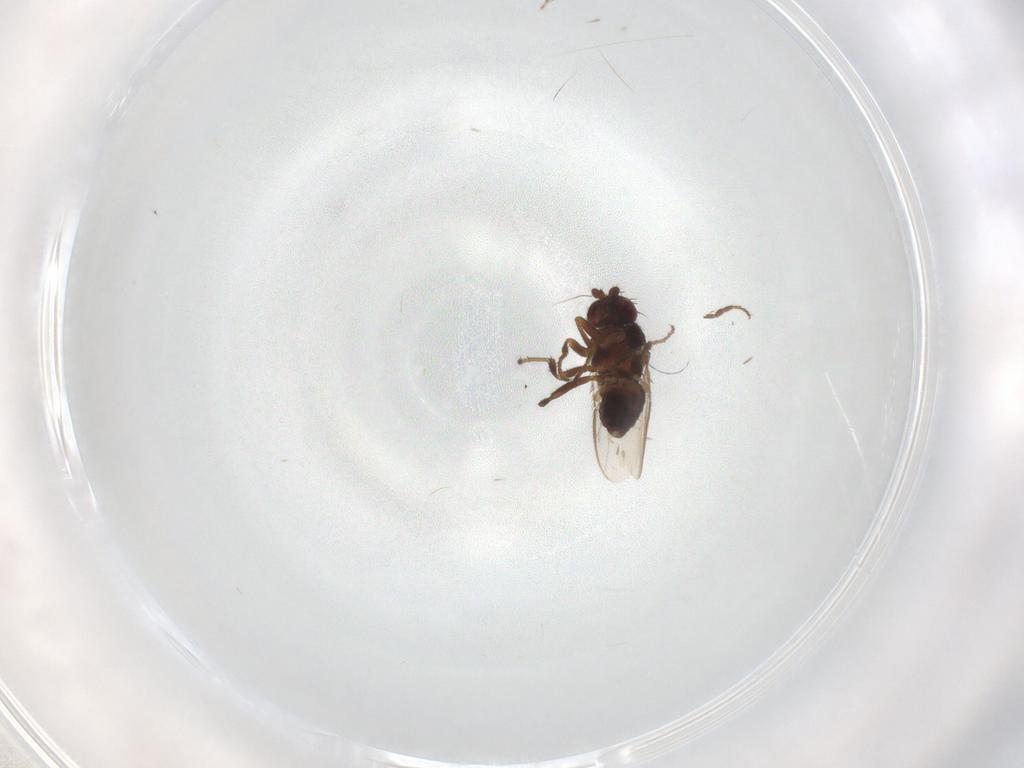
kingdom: Animalia
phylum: Arthropoda
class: Insecta
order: Diptera
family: Sphaeroceridae
